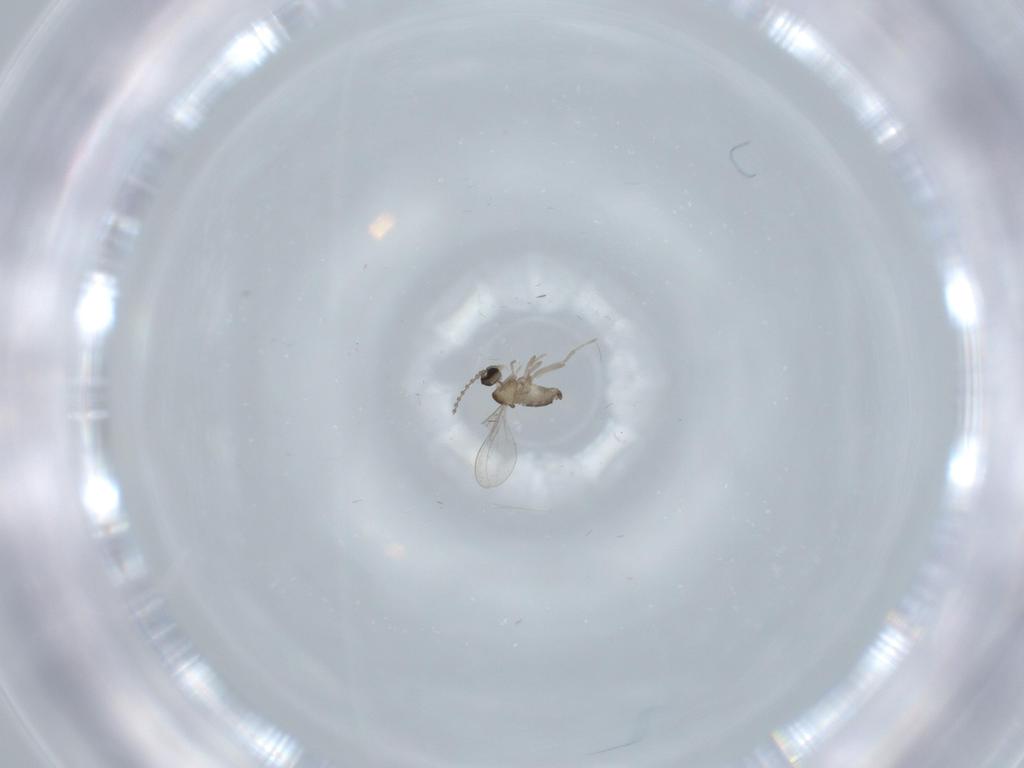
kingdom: Animalia
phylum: Arthropoda
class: Insecta
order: Diptera
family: Cecidomyiidae
